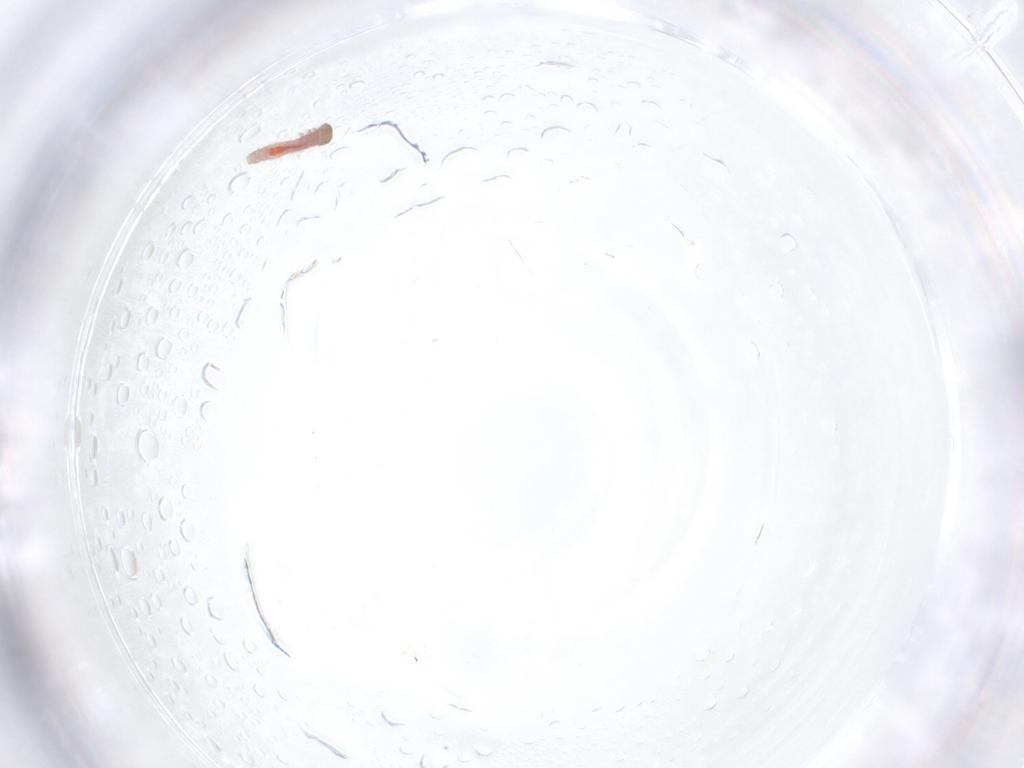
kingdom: Animalia
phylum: Arthropoda
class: Insecta
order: Lepidoptera
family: Xyloryctidae
